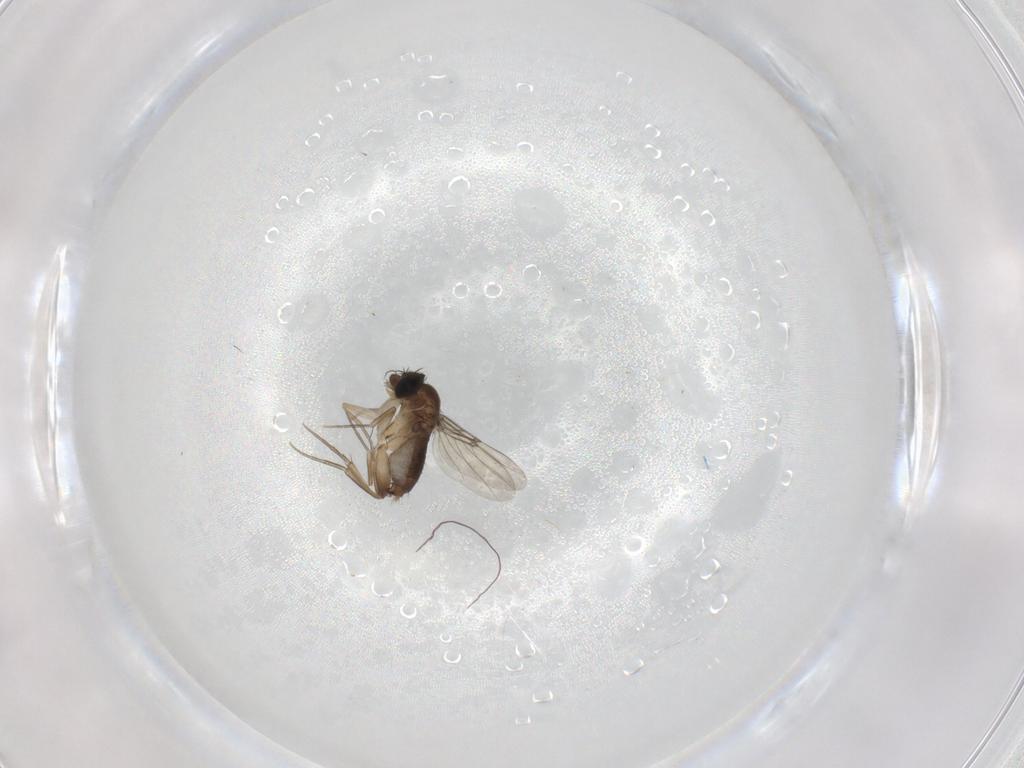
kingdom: Animalia
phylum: Arthropoda
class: Insecta
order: Diptera
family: Phoridae
